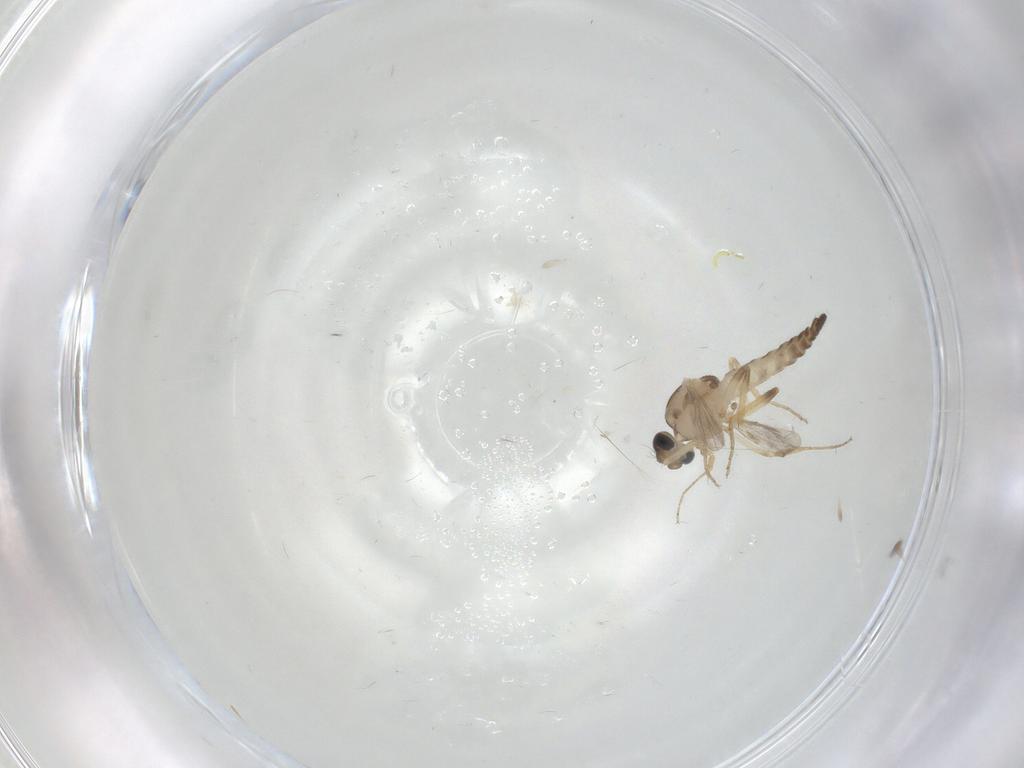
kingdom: Animalia
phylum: Arthropoda
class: Insecta
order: Diptera
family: Ceratopogonidae
